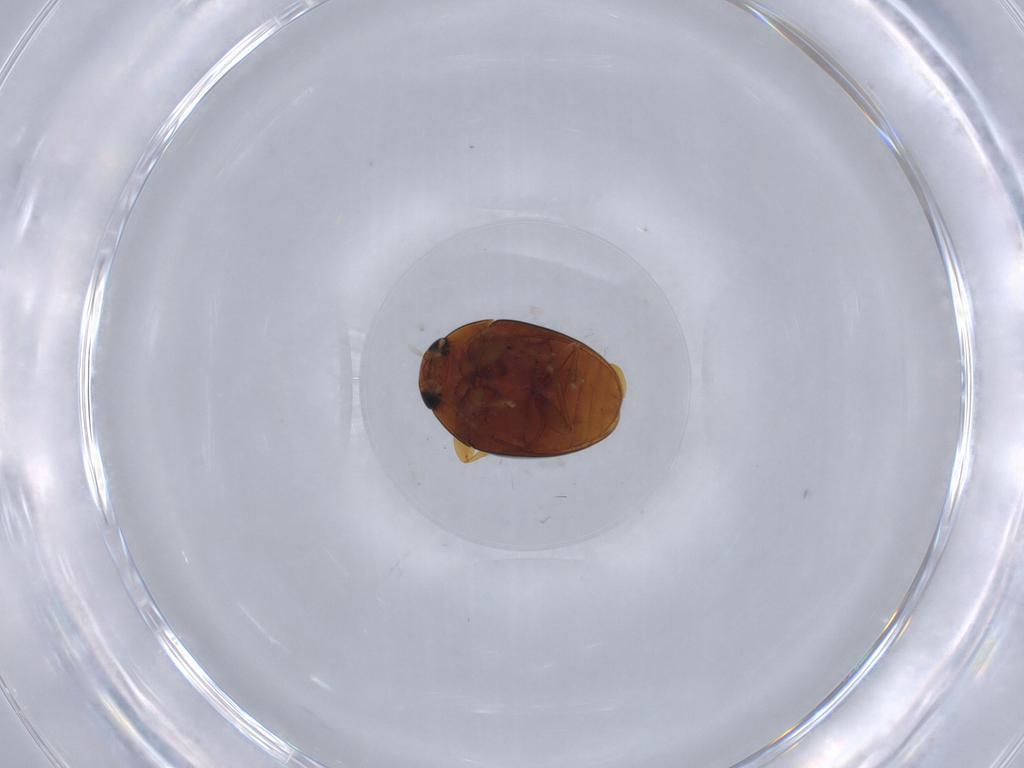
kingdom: Animalia
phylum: Arthropoda
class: Insecta
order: Coleoptera
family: Phalacridae
